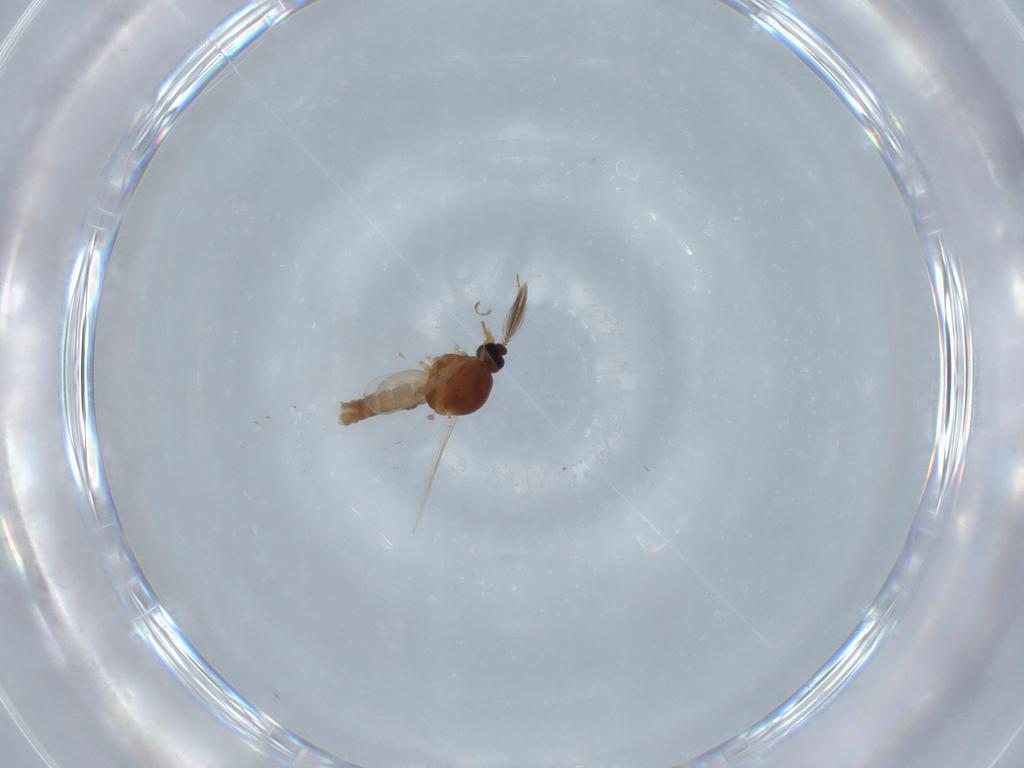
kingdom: Animalia
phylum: Arthropoda
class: Insecta
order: Diptera
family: Ceratopogonidae
